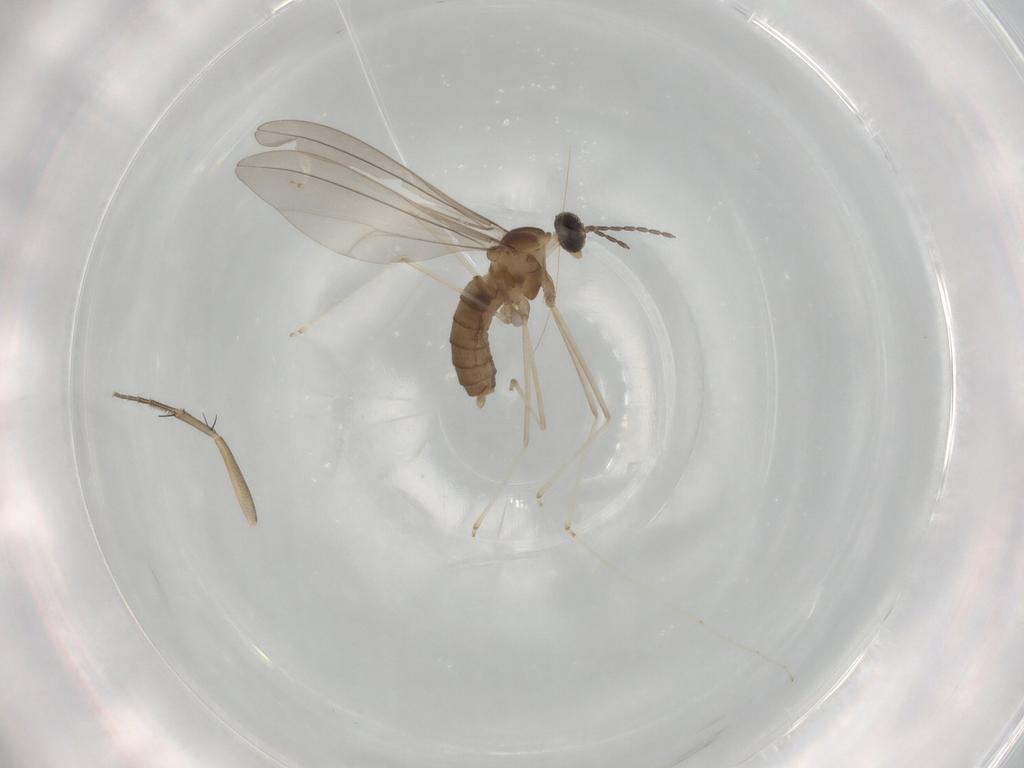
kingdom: Animalia
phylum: Arthropoda
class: Insecta
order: Diptera
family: Cecidomyiidae
